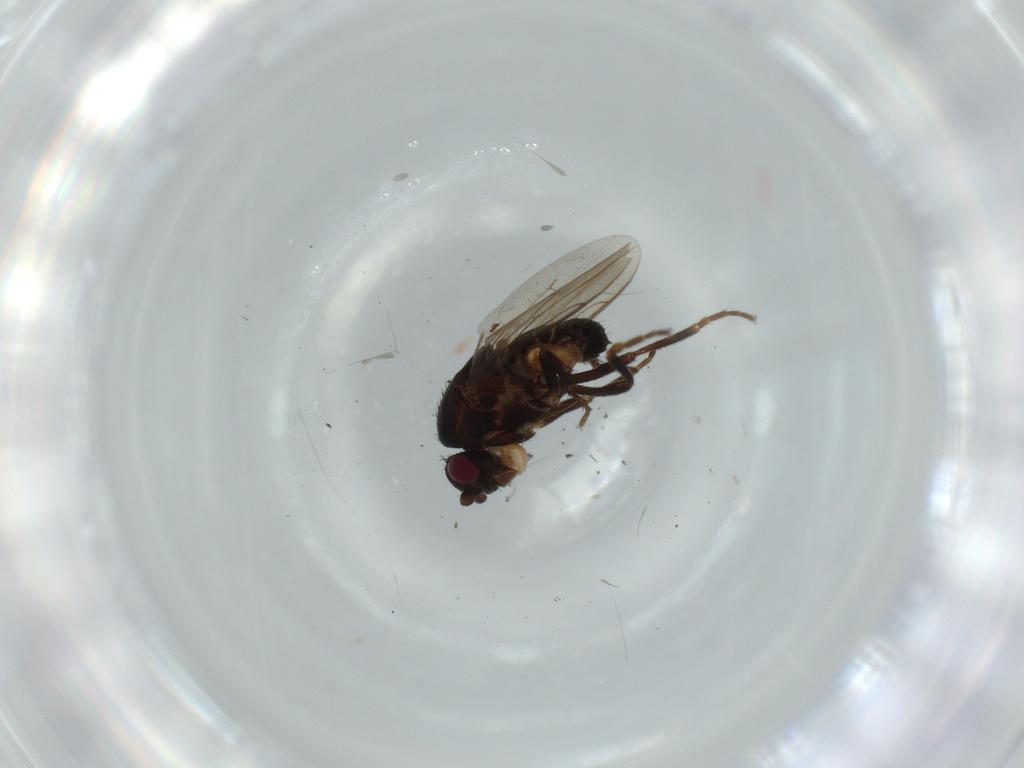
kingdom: Animalia
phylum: Arthropoda
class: Insecta
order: Diptera
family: Sphaeroceridae
